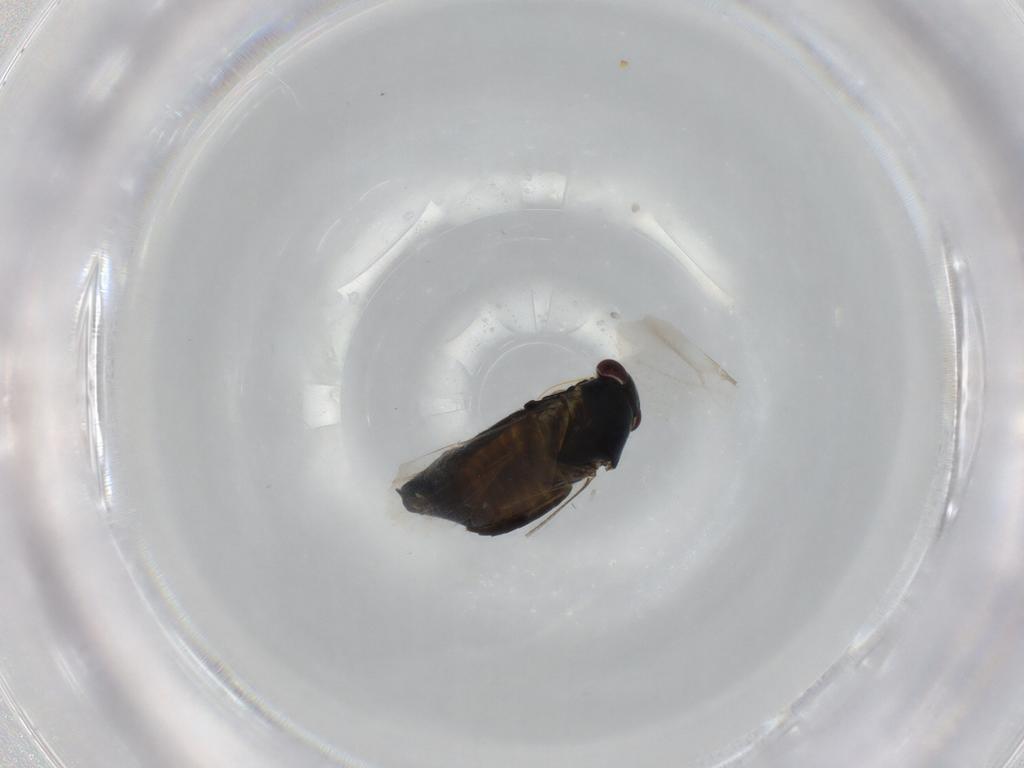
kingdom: Animalia
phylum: Arthropoda
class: Insecta
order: Hemiptera
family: Miridae
